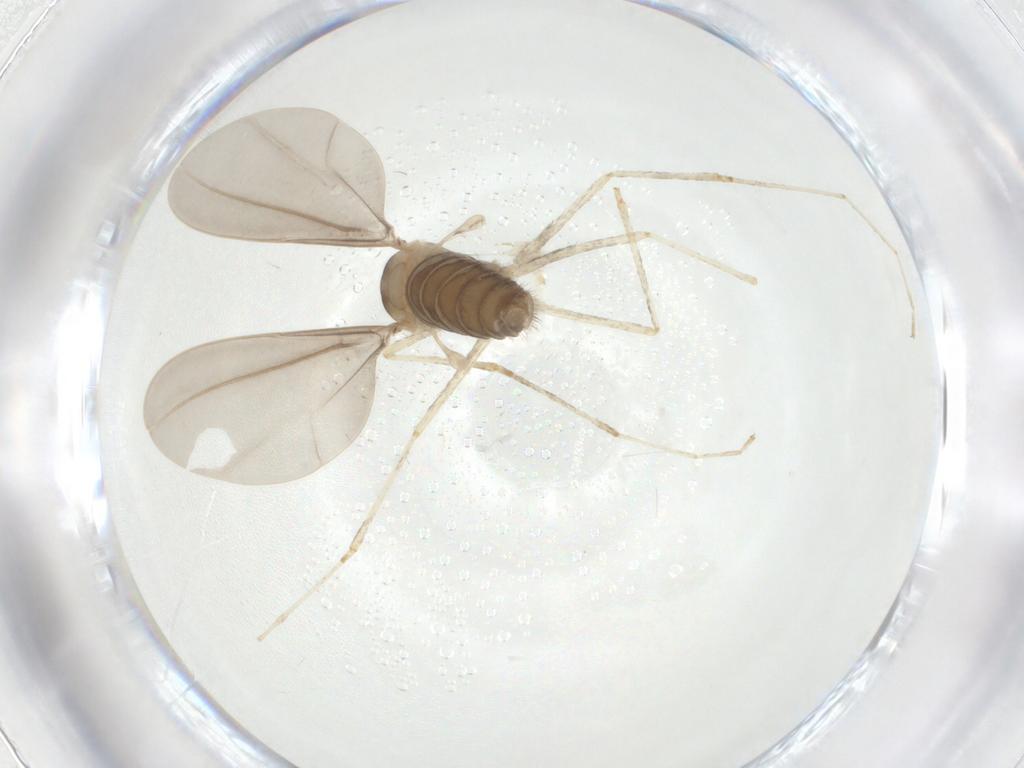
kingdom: Animalia
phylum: Arthropoda
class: Insecta
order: Diptera
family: Cecidomyiidae
